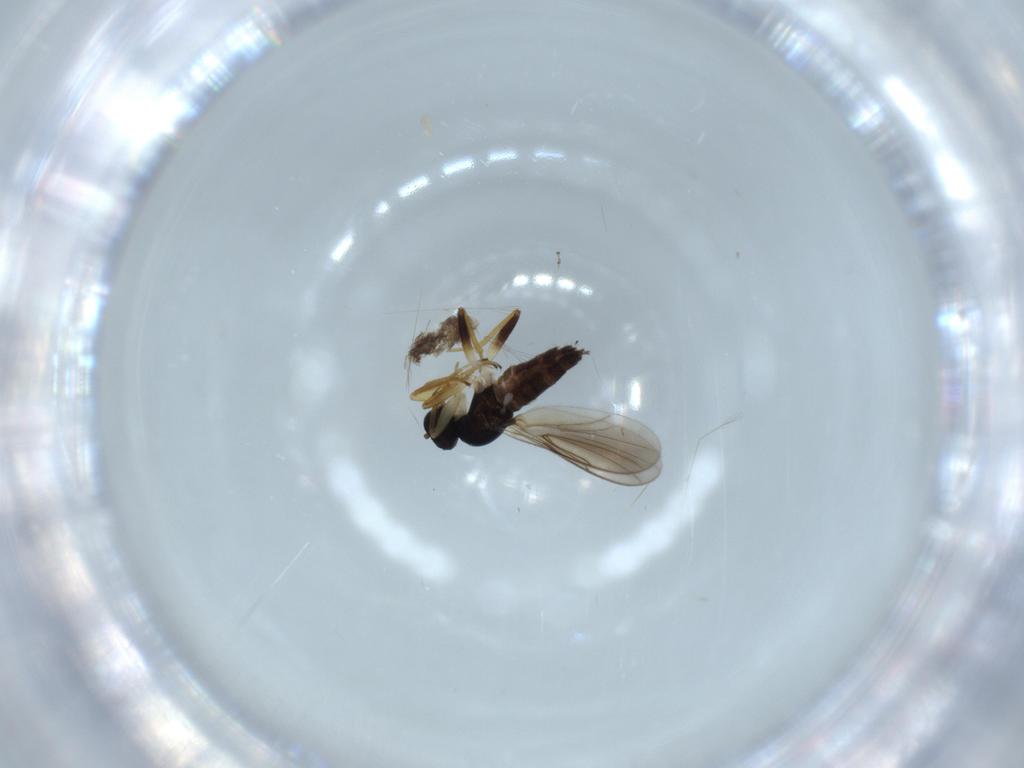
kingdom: Animalia
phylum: Arthropoda
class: Insecta
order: Diptera
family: Hybotidae
